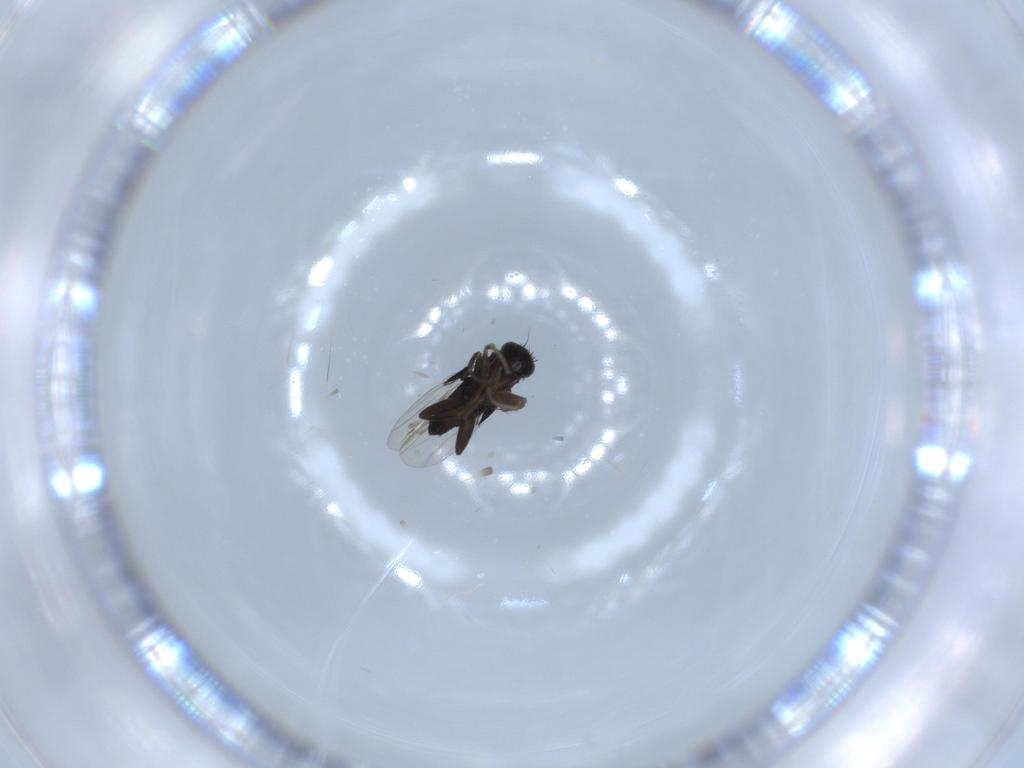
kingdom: Animalia
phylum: Arthropoda
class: Insecta
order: Diptera
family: Phoridae
